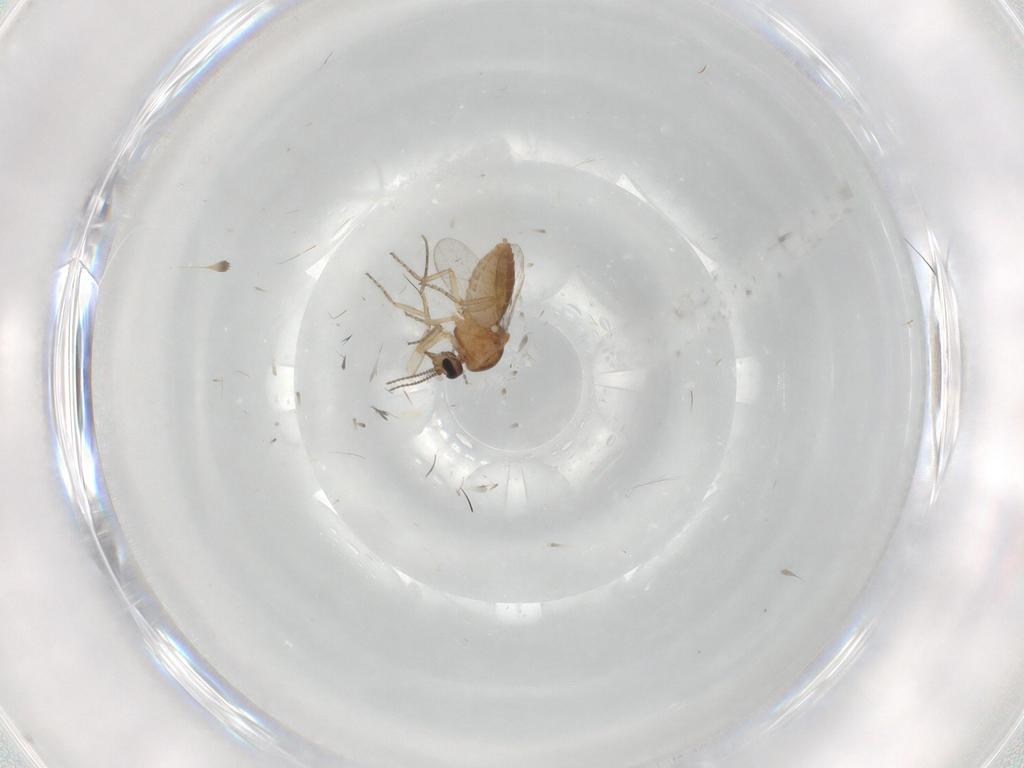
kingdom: Animalia
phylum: Arthropoda
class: Insecta
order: Diptera
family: Ceratopogonidae
